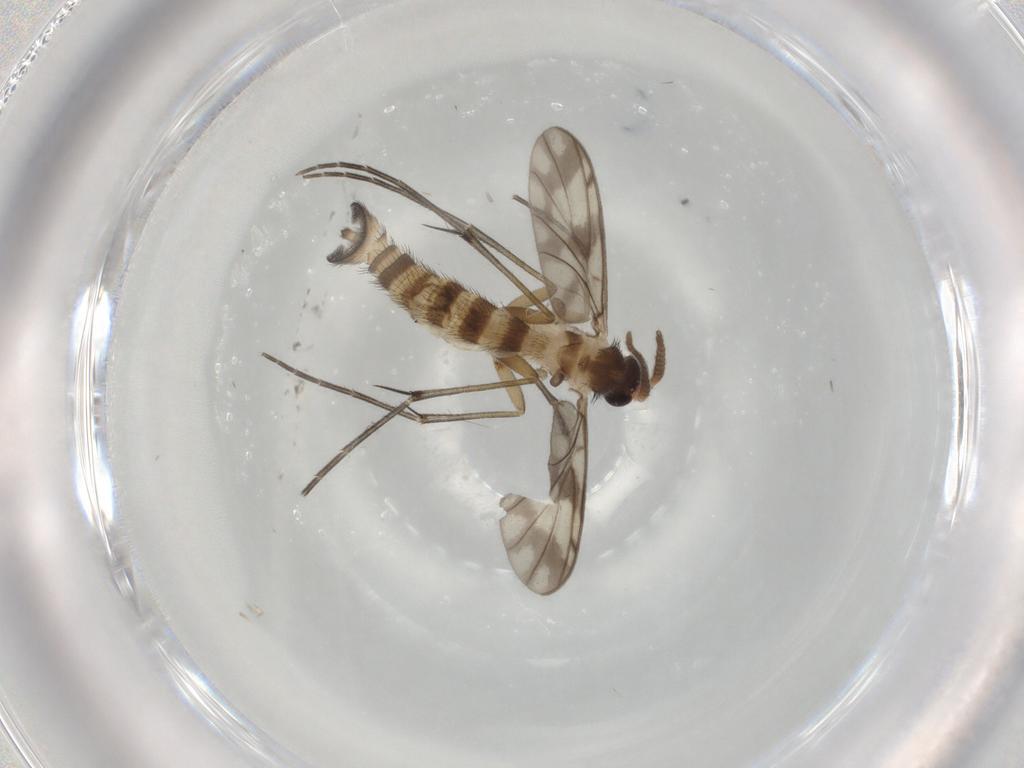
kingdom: Animalia
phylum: Arthropoda
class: Insecta
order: Diptera
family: Keroplatidae
